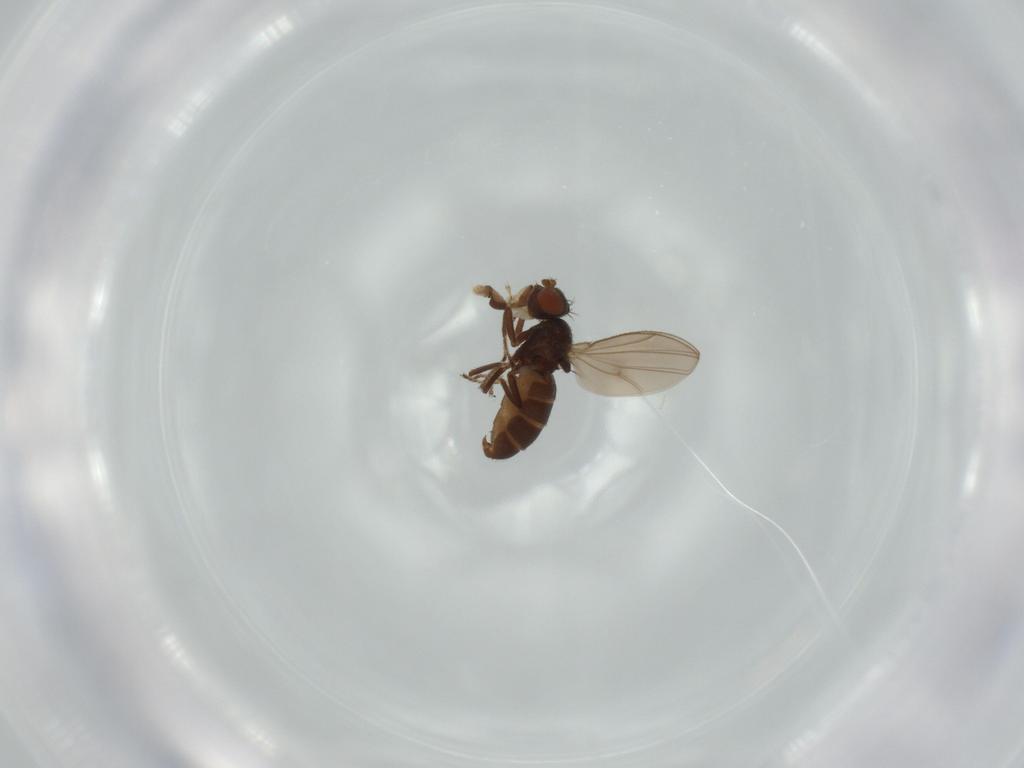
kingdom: Animalia
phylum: Arthropoda
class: Insecta
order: Diptera
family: Ephydridae
